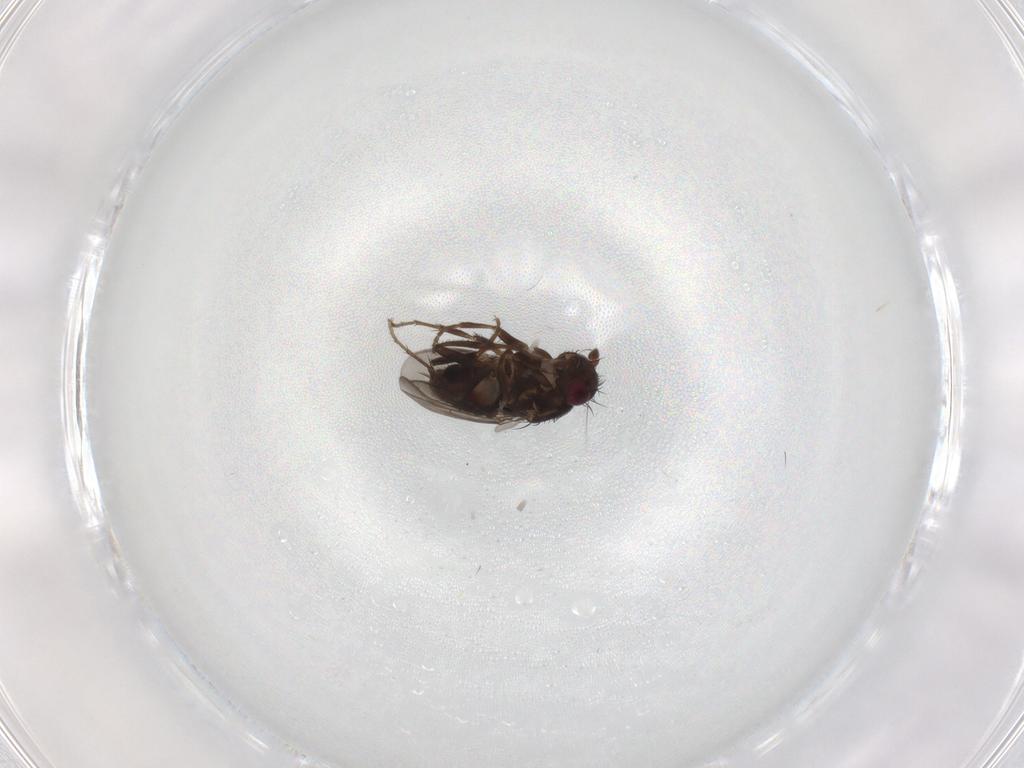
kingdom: Animalia
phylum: Arthropoda
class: Insecta
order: Diptera
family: Sphaeroceridae
